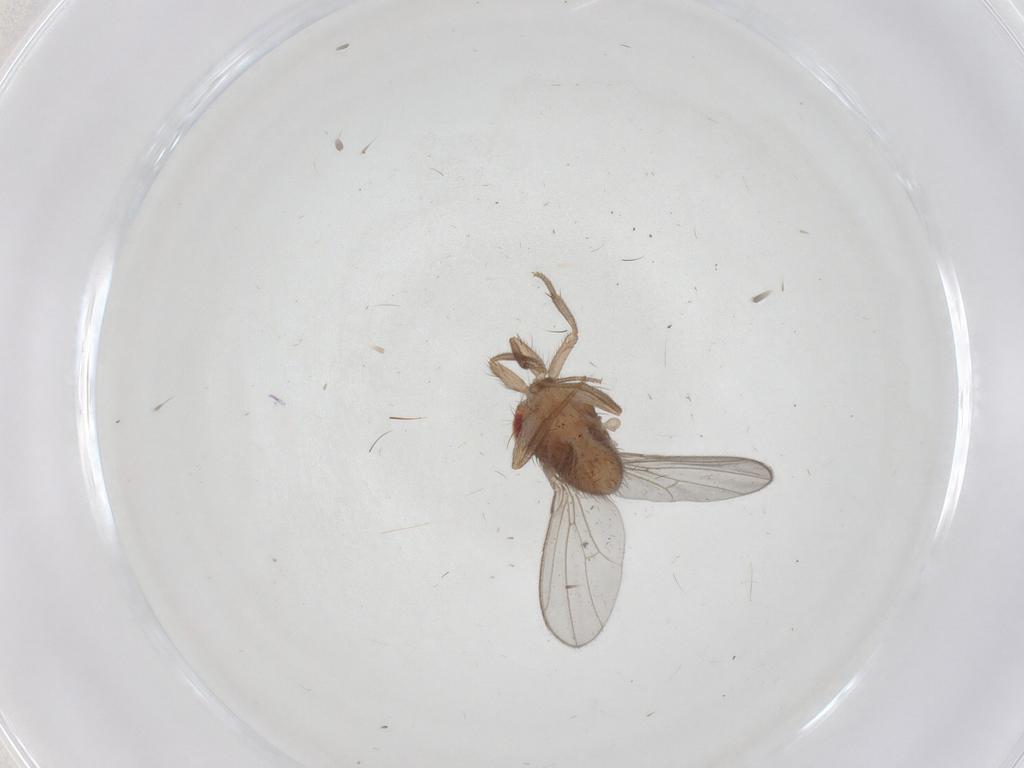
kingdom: Animalia
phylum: Arthropoda
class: Insecta
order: Diptera
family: Drosophilidae
